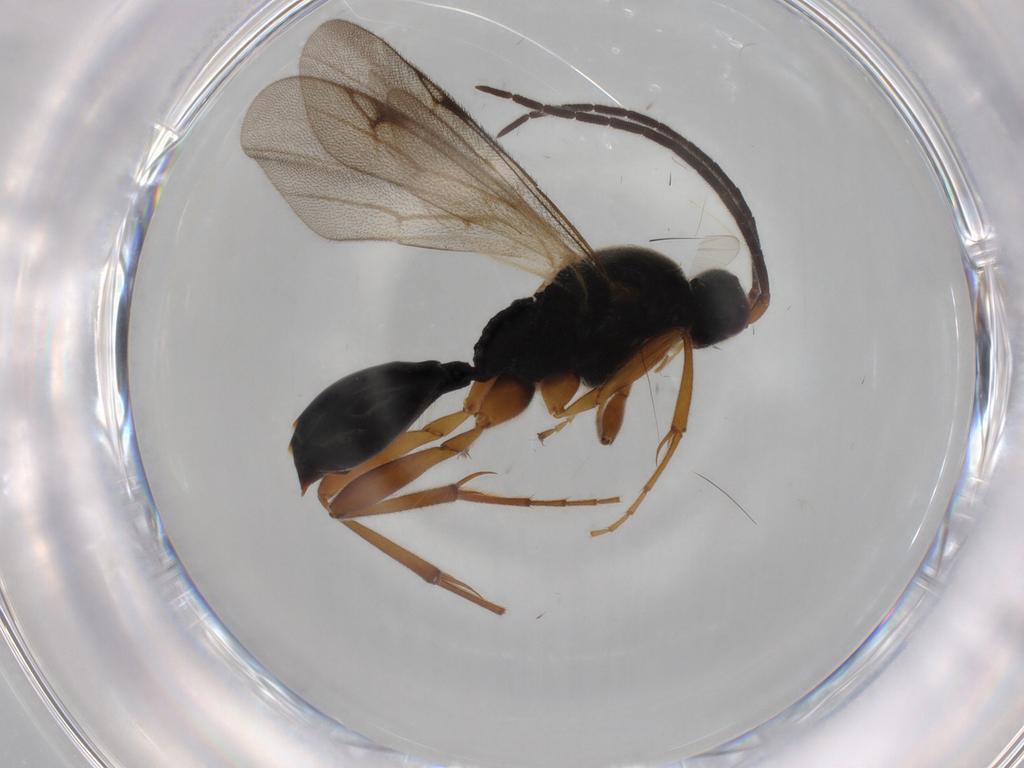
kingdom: Animalia
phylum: Arthropoda
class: Insecta
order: Hymenoptera
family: Proctotrupidae
